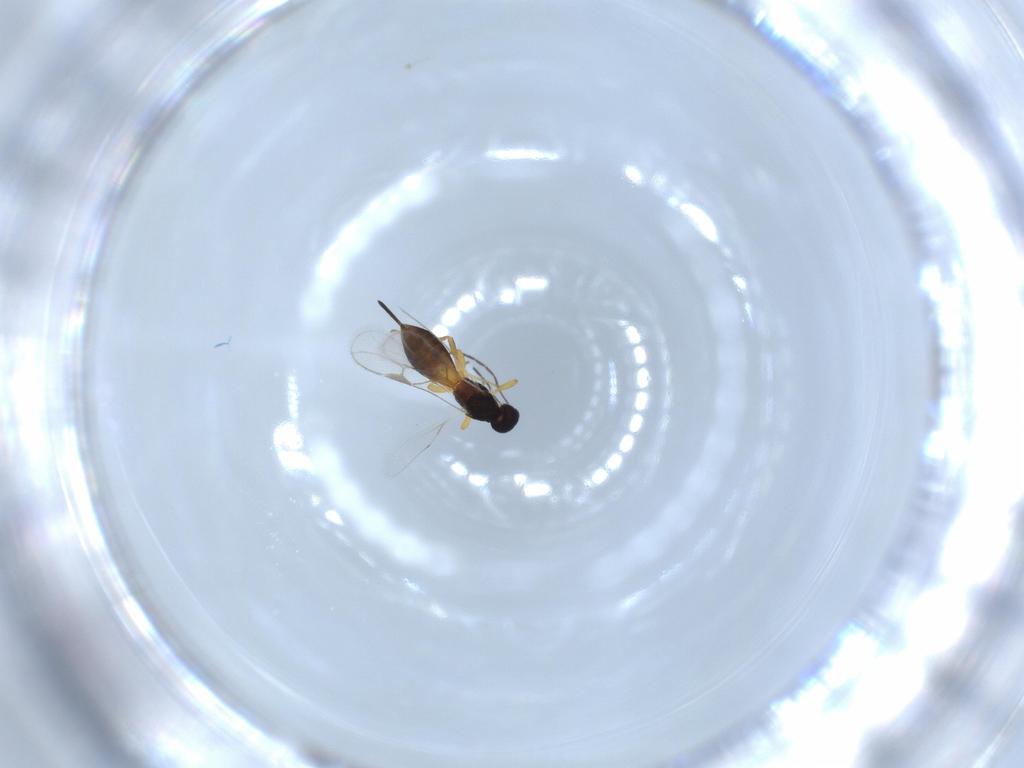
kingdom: Animalia
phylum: Arthropoda
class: Insecta
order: Hymenoptera
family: Braconidae
